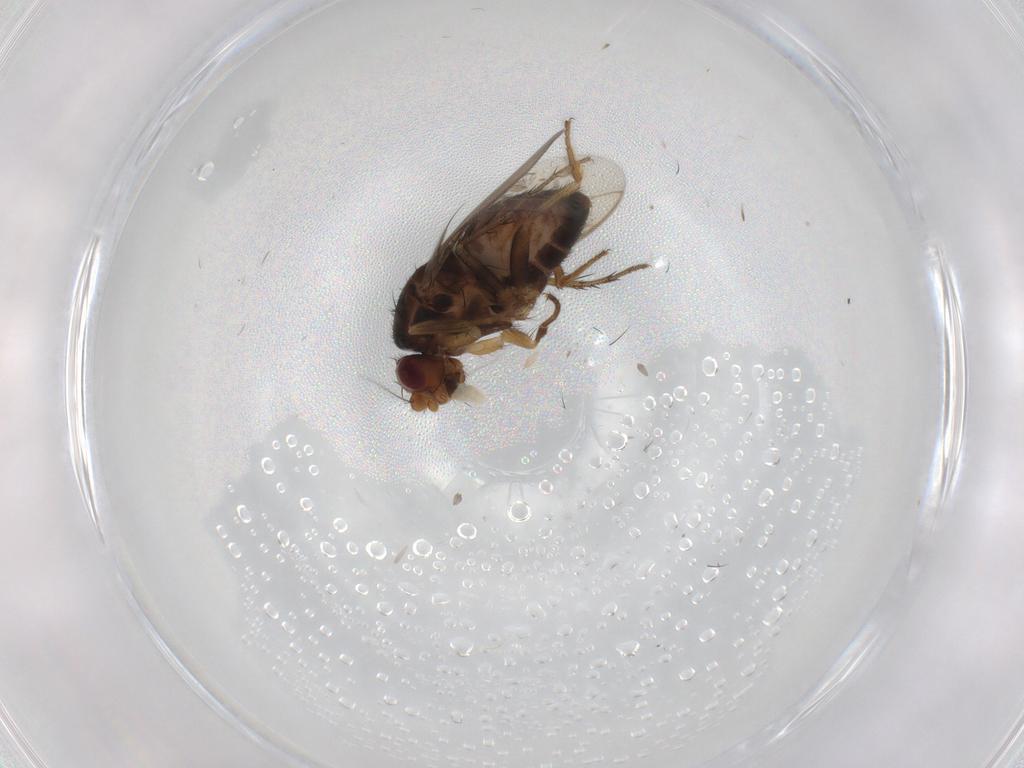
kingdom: Animalia
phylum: Arthropoda
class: Insecta
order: Diptera
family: Sphaeroceridae
